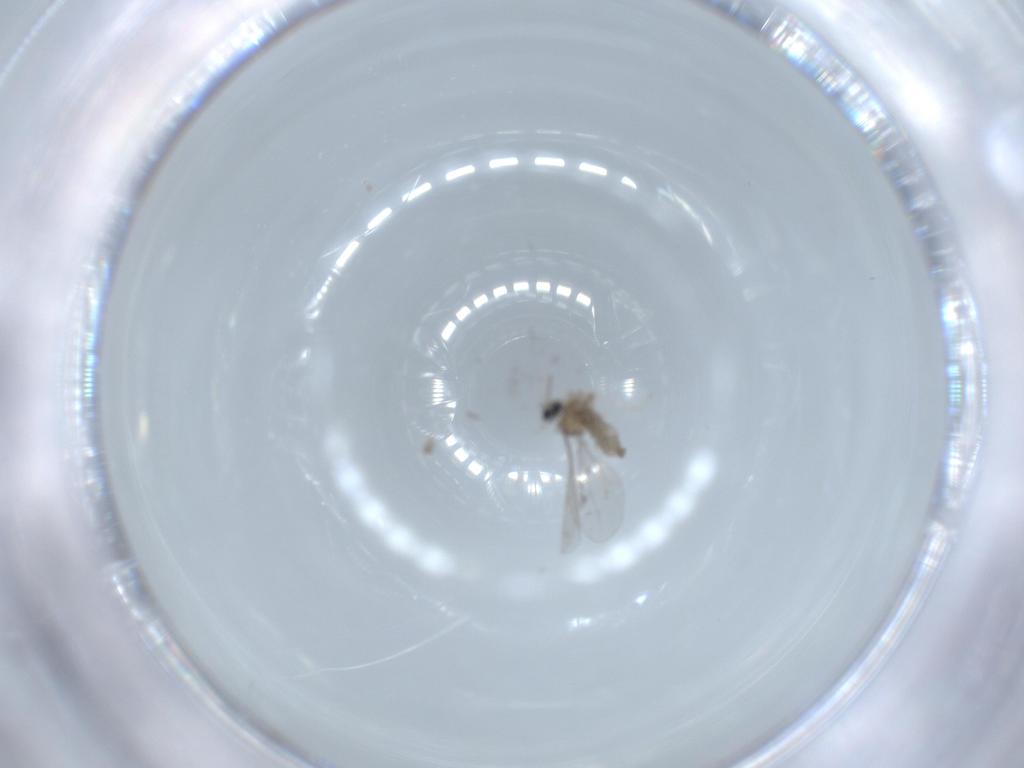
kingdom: Animalia
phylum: Arthropoda
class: Insecta
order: Diptera
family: Cecidomyiidae
